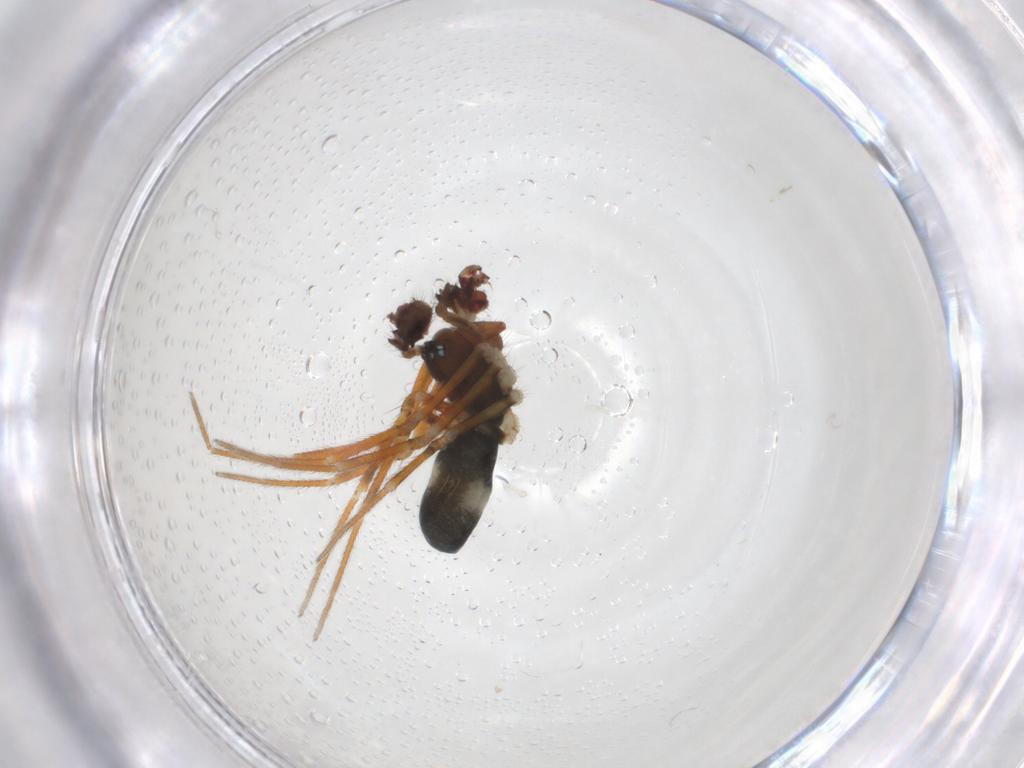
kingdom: Animalia
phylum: Arthropoda
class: Arachnida
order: Araneae
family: Linyphiidae
